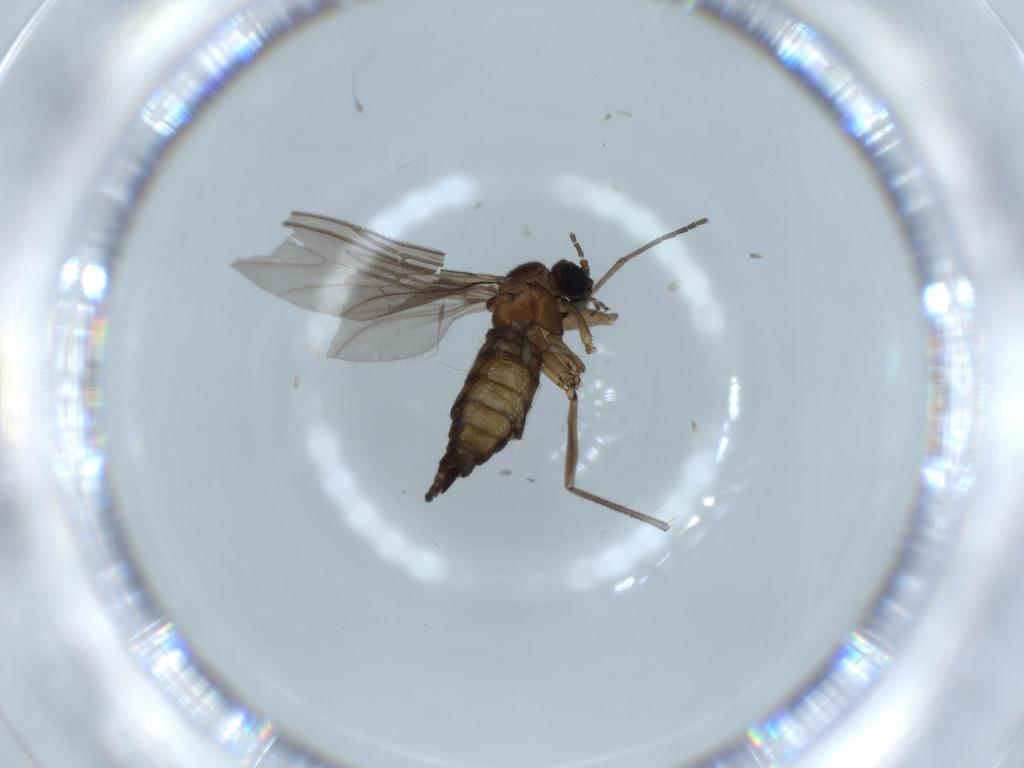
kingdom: Animalia
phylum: Arthropoda
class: Insecta
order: Diptera
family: Sciaridae
